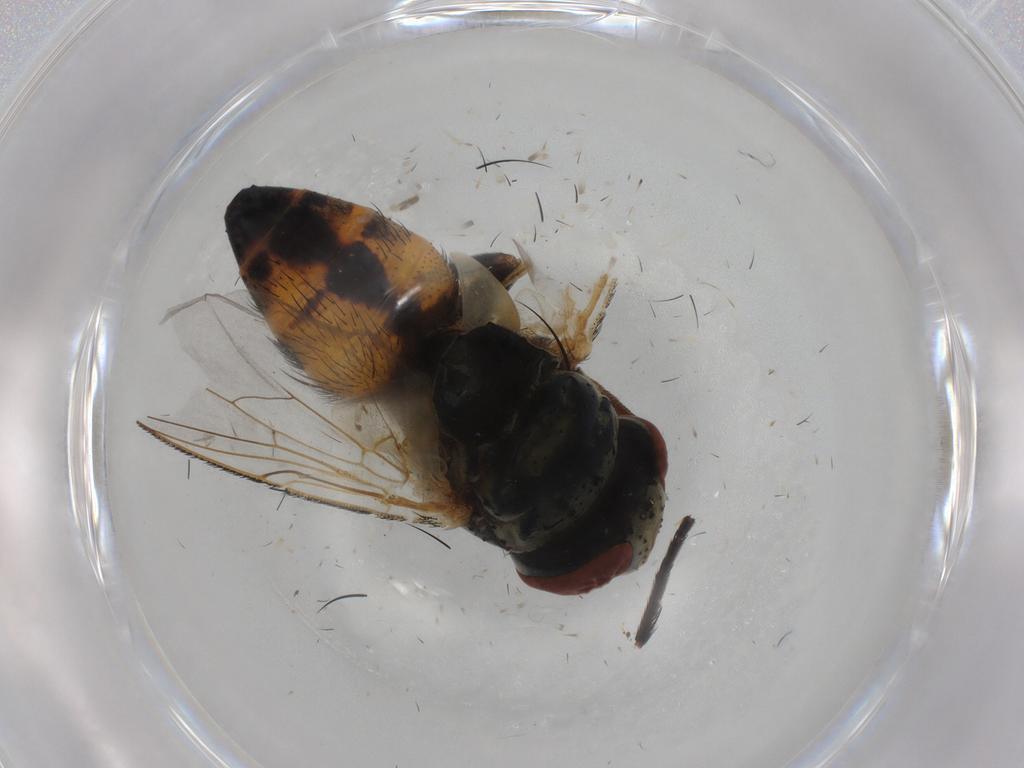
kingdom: Animalia
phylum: Arthropoda
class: Insecta
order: Diptera
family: Sarcophagidae
